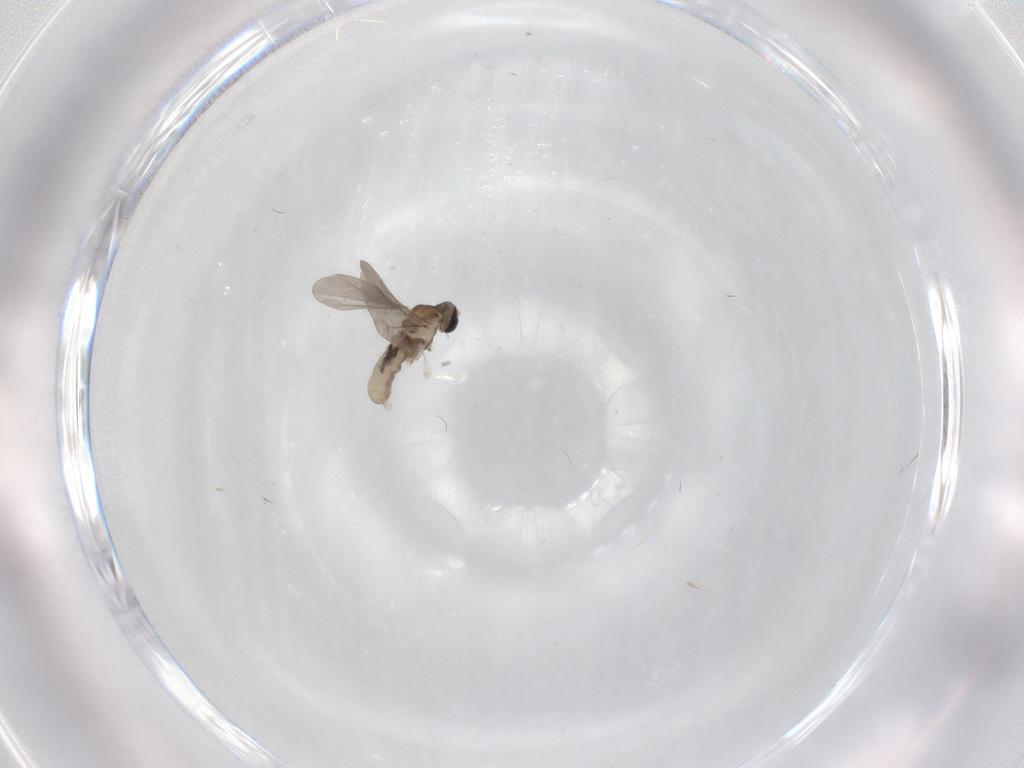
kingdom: Animalia
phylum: Arthropoda
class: Insecta
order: Diptera
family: Cecidomyiidae
